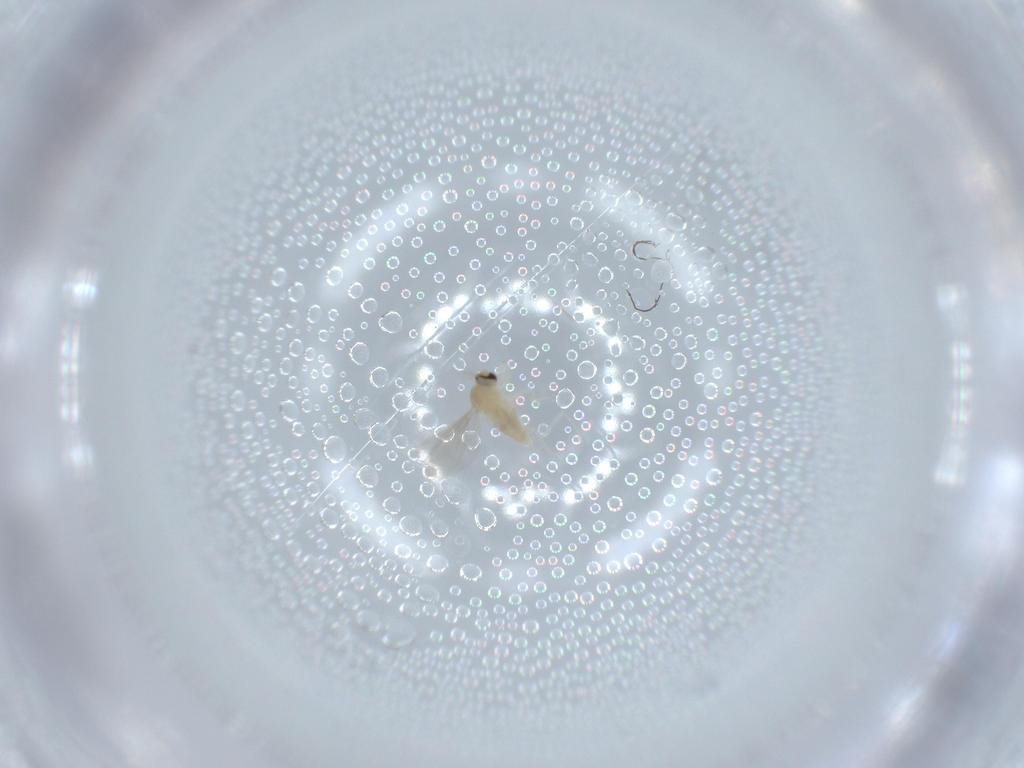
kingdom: Animalia
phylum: Arthropoda
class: Insecta
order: Diptera
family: Cecidomyiidae
